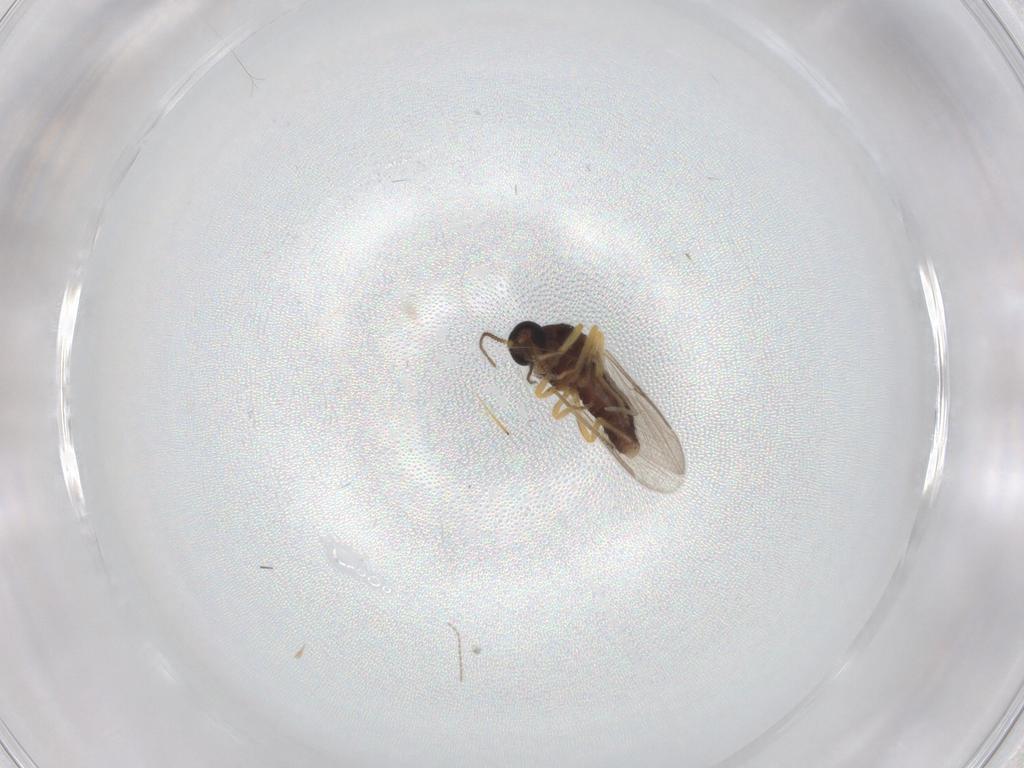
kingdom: Animalia
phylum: Arthropoda
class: Insecta
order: Diptera
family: Ceratopogonidae
